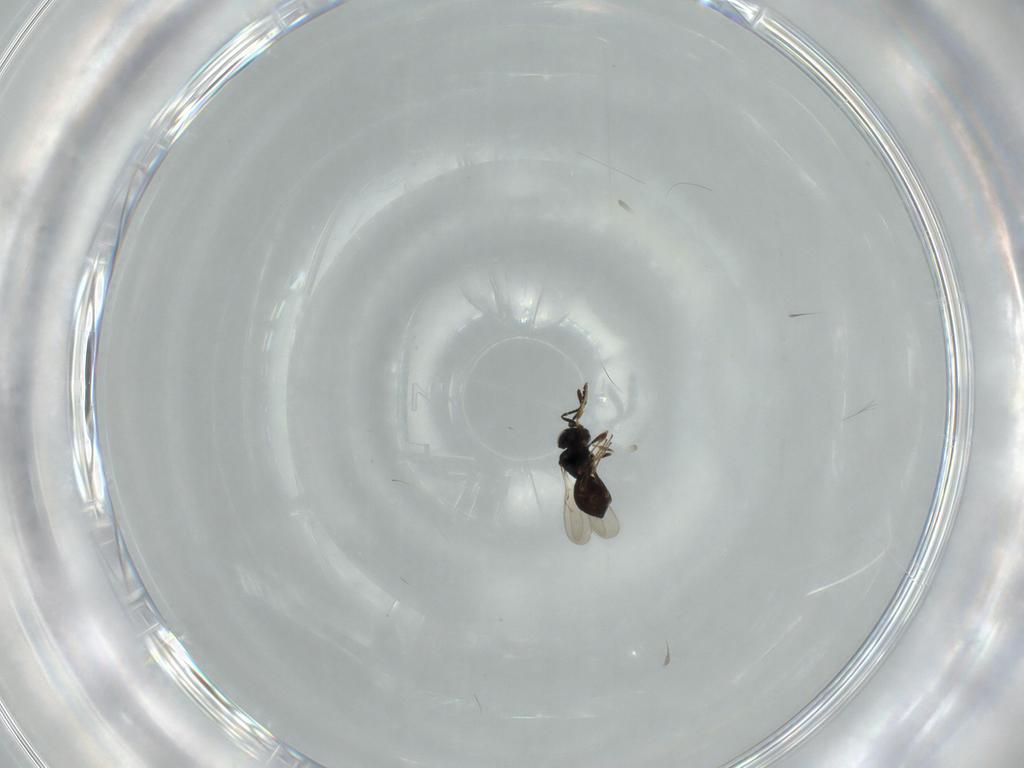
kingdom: Animalia
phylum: Arthropoda
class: Insecta
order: Hymenoptera
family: Scelionidae
